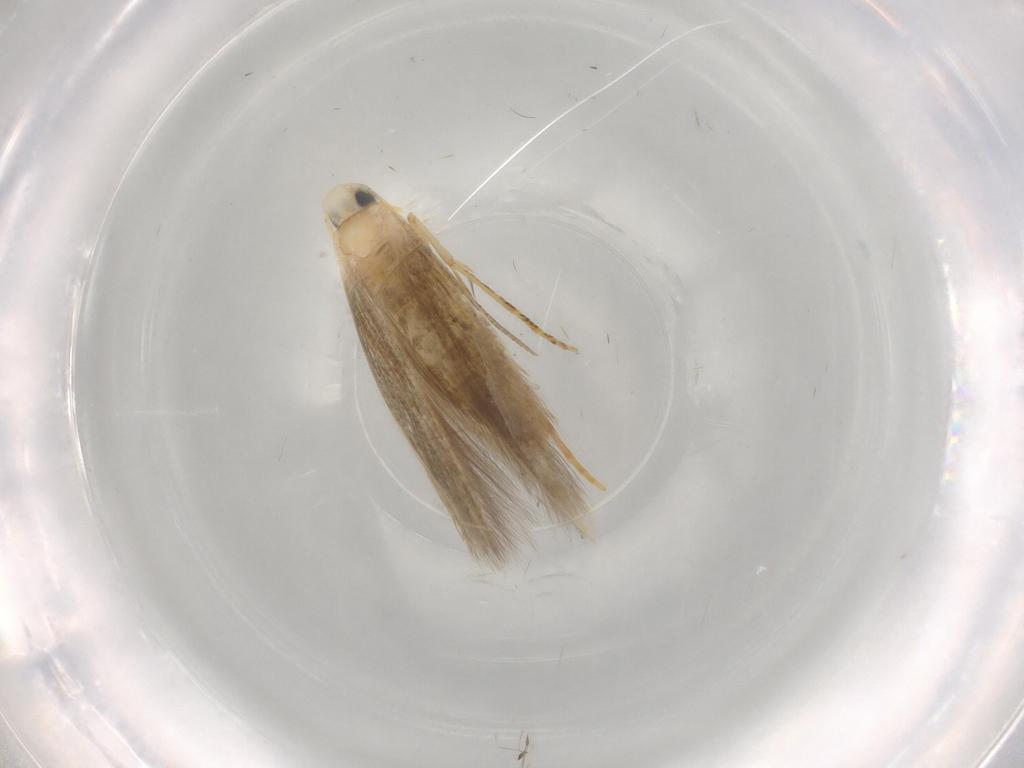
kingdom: Animalia
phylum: Arthropoda
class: Insecta
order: Lepidoptera
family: Tischeriidae
